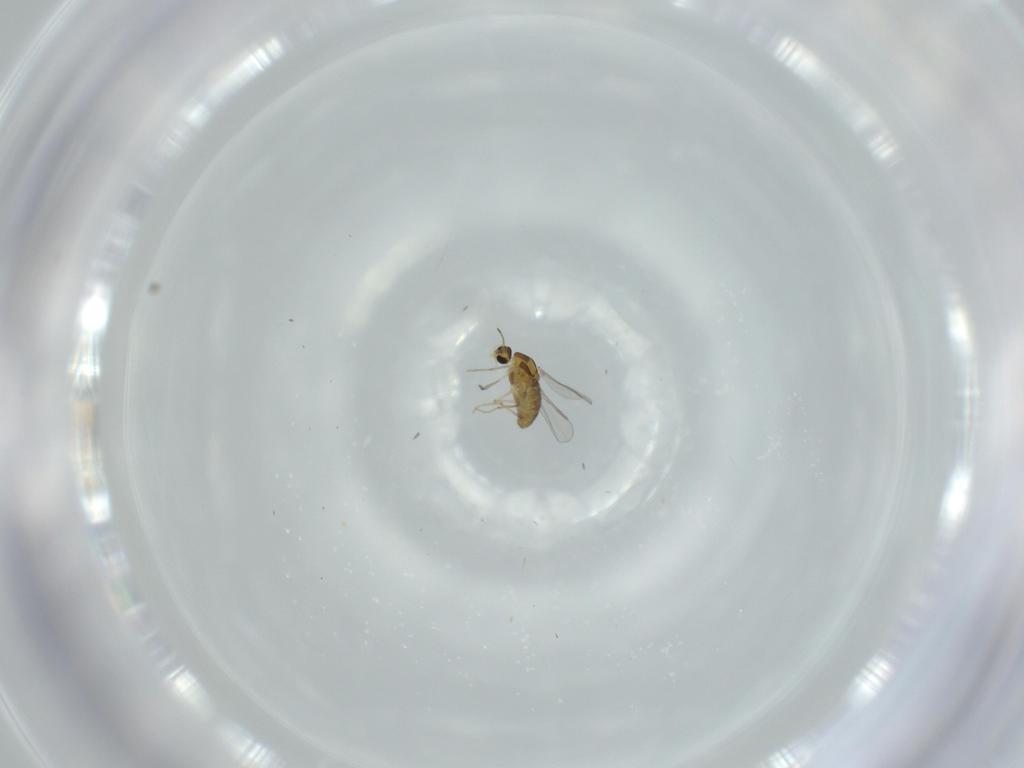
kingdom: Animalia
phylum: Arthropoda
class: Insecta
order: Diptera
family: Chironomidae
